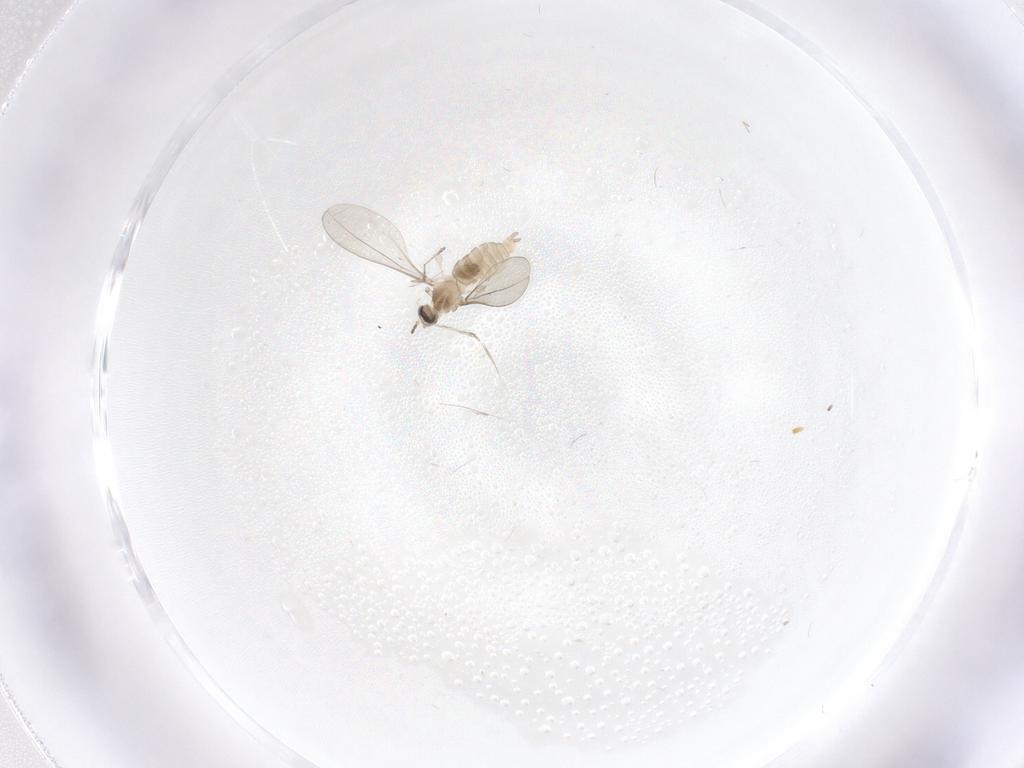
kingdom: Animalia
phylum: Arthropoda
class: Insecta
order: Diptera
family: Cecidomyiidae
